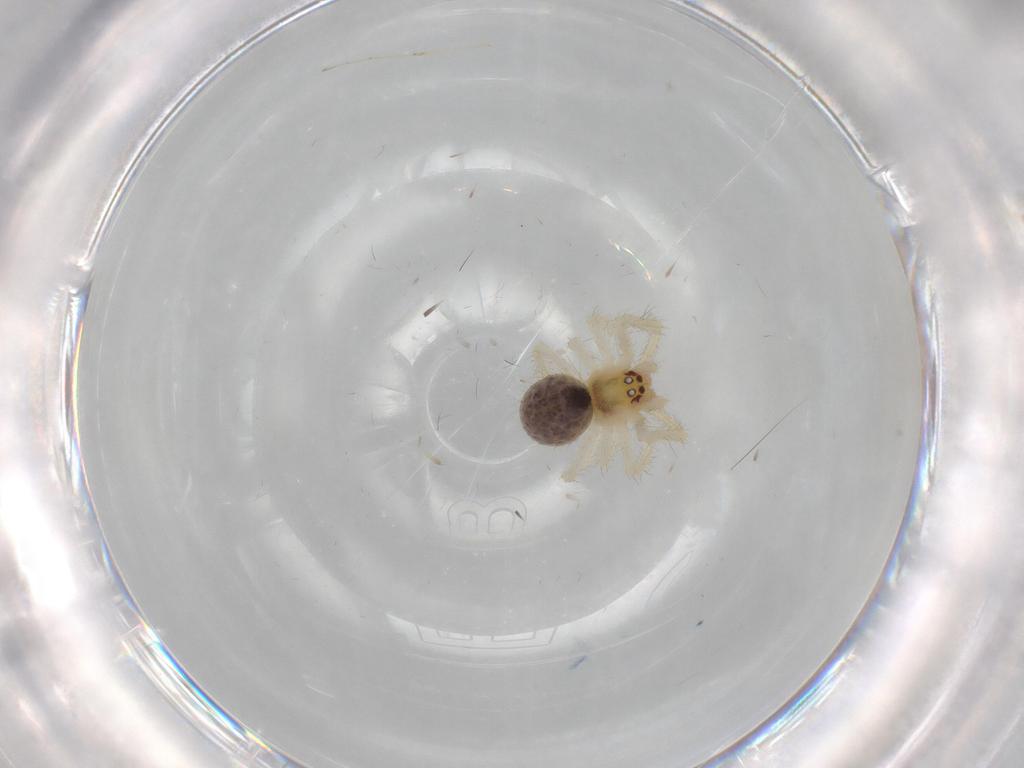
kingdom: Animalia
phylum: Arthropoda
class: Arachnida
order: Araneae
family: Theridiidae
